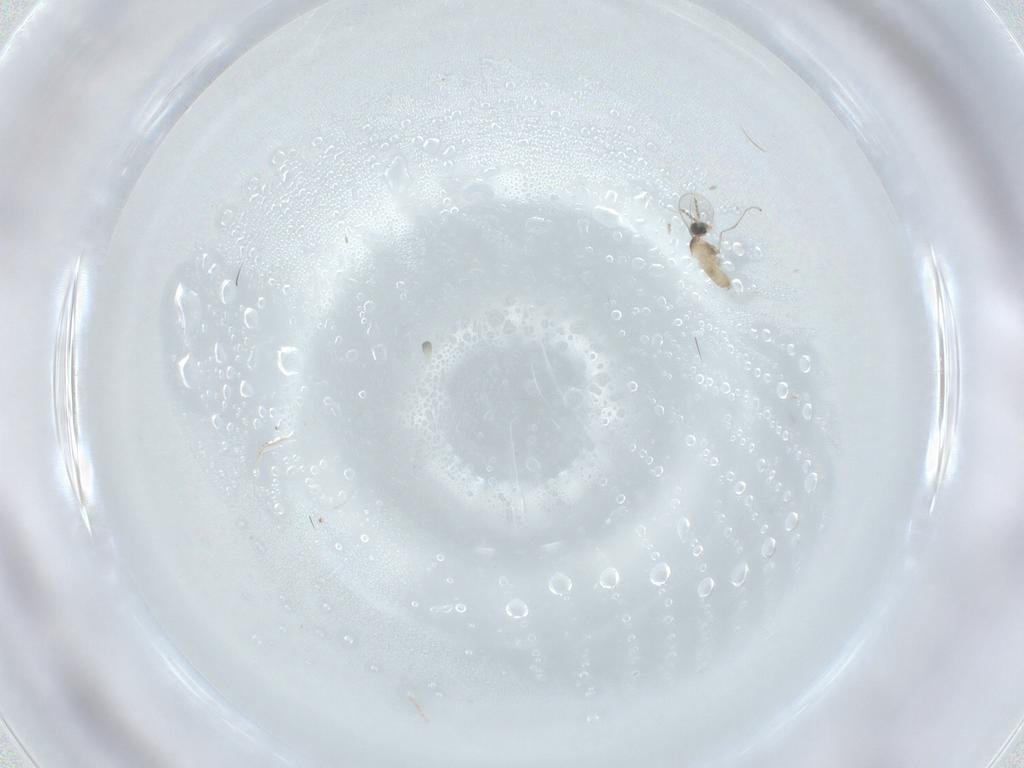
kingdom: Animalia
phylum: Arthropoda
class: Insecta
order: Diptera
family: Cecidomyiidae
